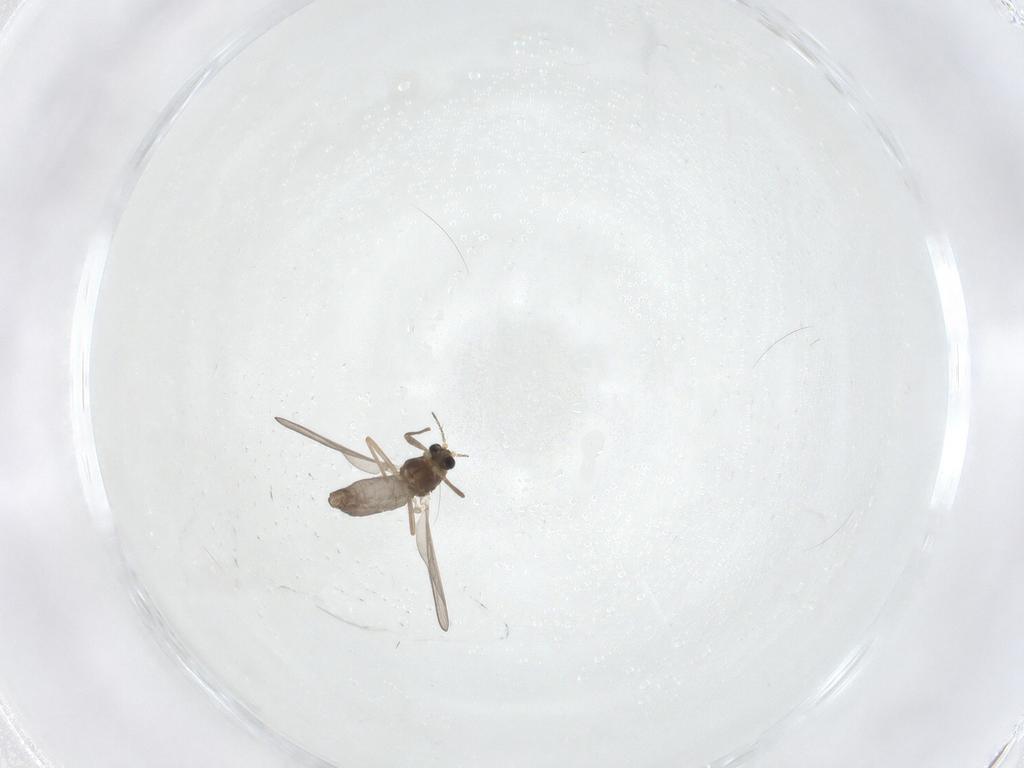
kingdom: Animalia
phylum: Arthropoda
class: Insecta
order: Diptera
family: Chironomidae
